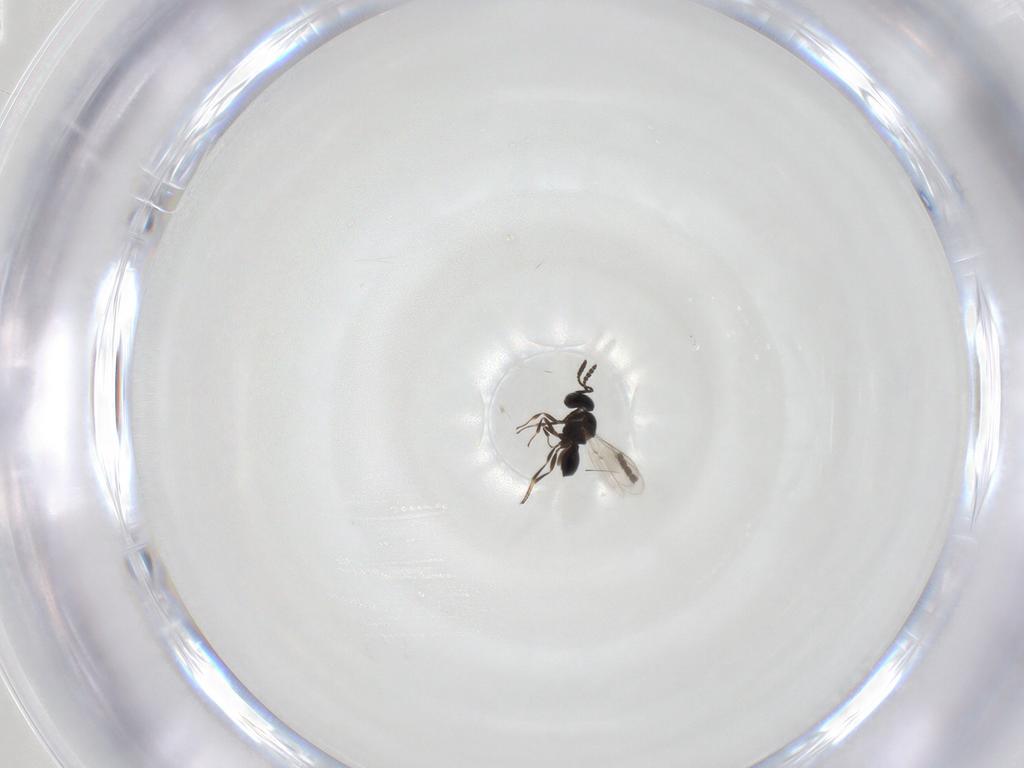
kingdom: Animalia
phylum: Arthropoda
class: Insecta
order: Hymenoptera
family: Scelionidae
